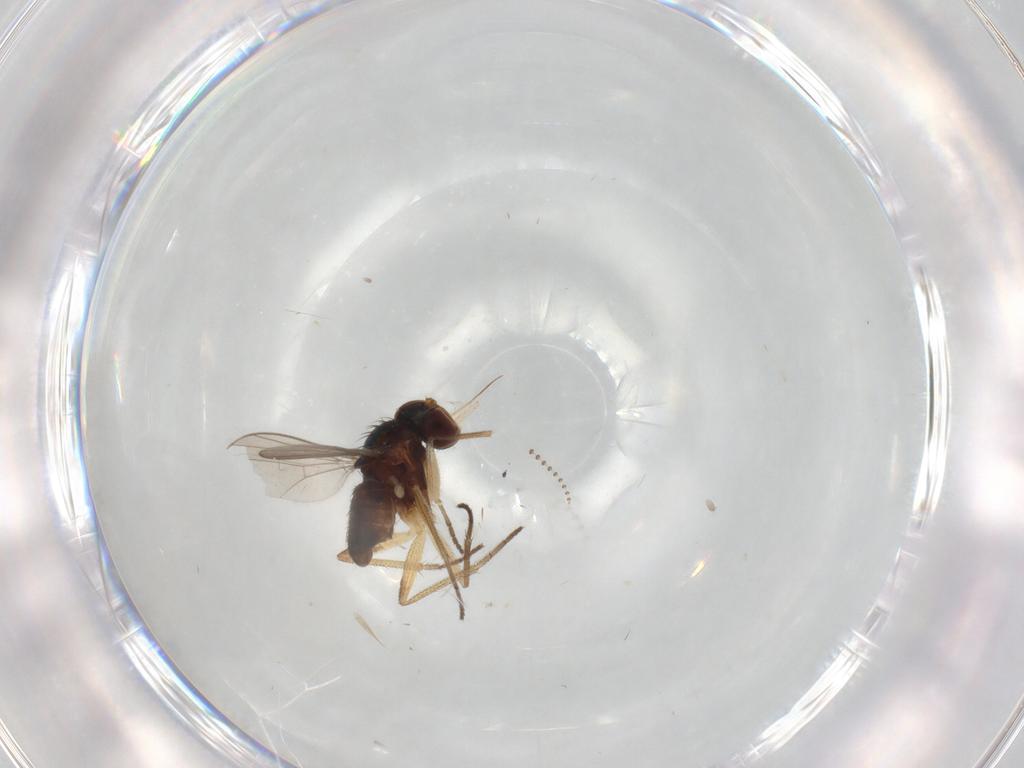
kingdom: Animalia
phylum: Arthropoda
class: Insecta
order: Diptera
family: Dolichopodidae
